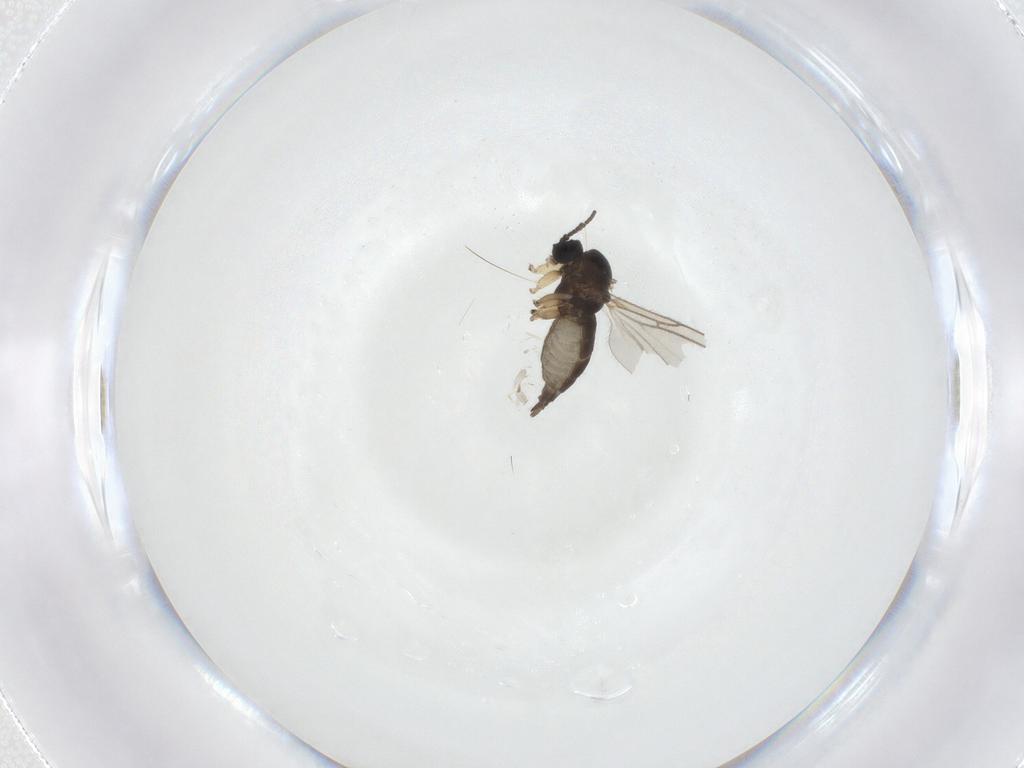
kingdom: Animalia
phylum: Arthropoda
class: Insecta
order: Diptera
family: Sciaridae
